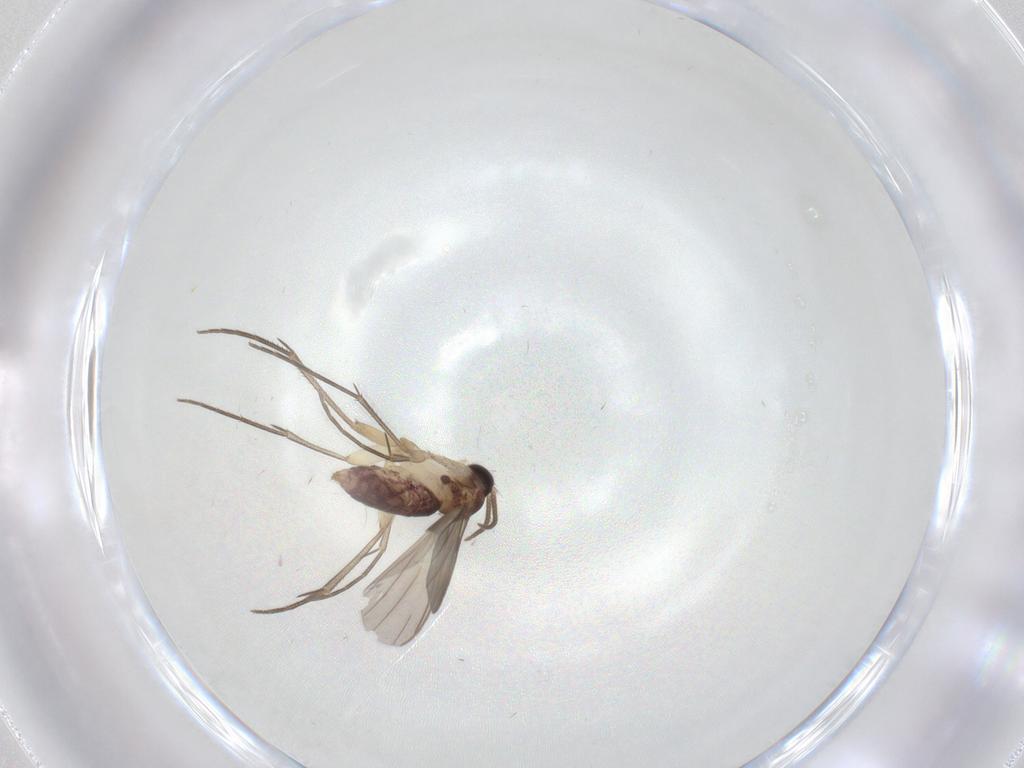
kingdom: Animalia
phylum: Arthropoda
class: Insecta
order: Diptera
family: Mycetophilidae
